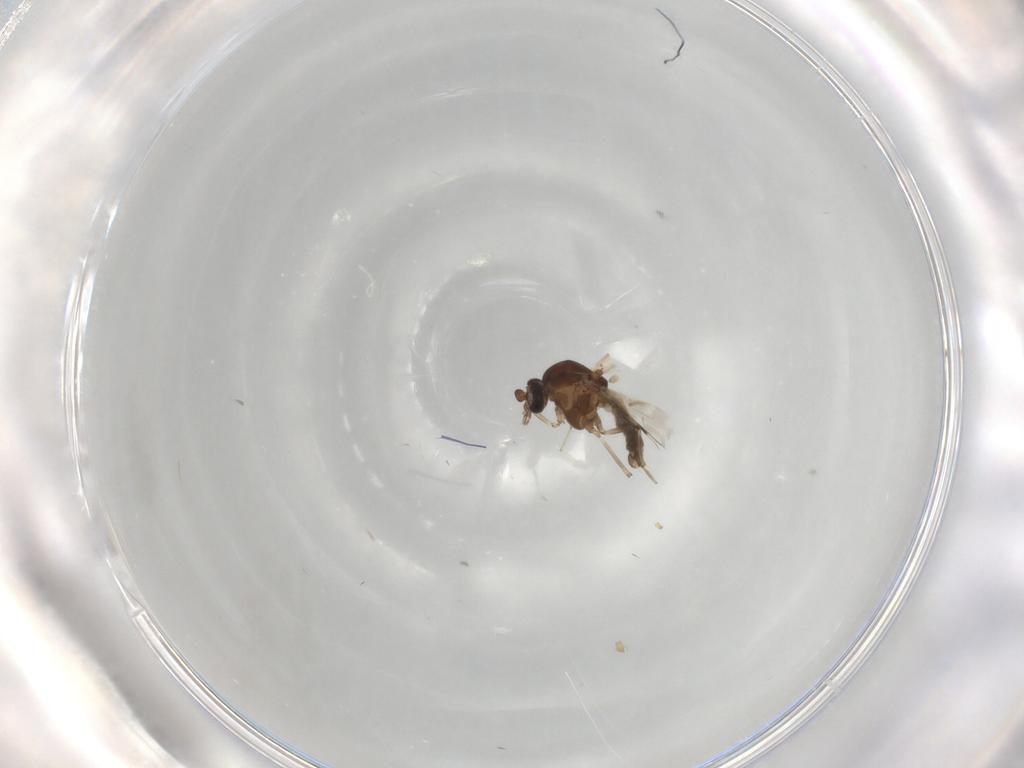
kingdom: Animalia
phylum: Arthropoda
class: Insecta
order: Diptera
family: Ceratopogonidae
